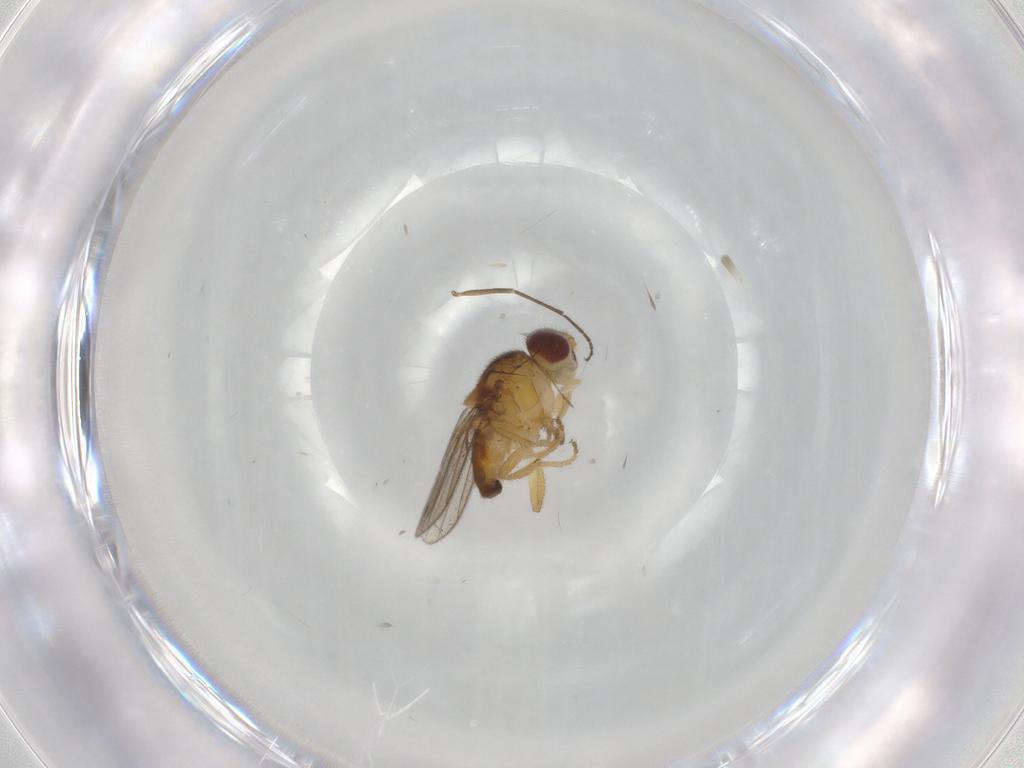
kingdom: Animalia
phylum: Arthropoda
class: Insecta
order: Diptera
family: Chloropidae
